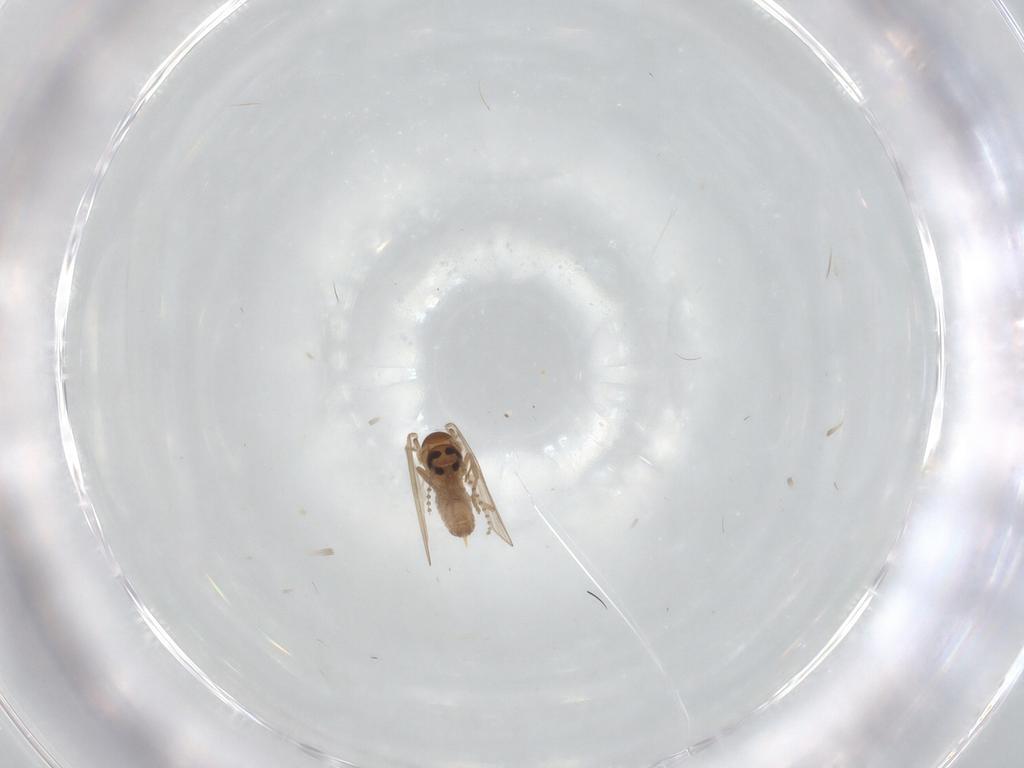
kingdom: Animalia
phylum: Arthropoda
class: Insecta
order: Diptera
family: Psychodidae
